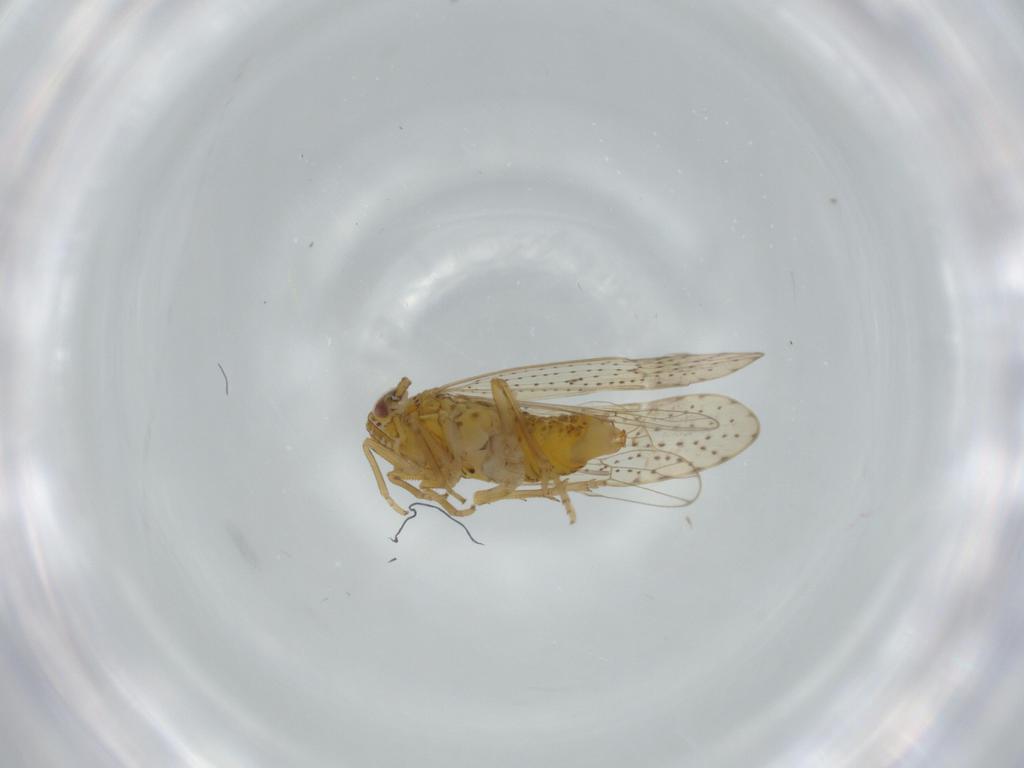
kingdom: Animalia
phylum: Arthropoda
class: Insecta
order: Hemiptera
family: Delphacidae
